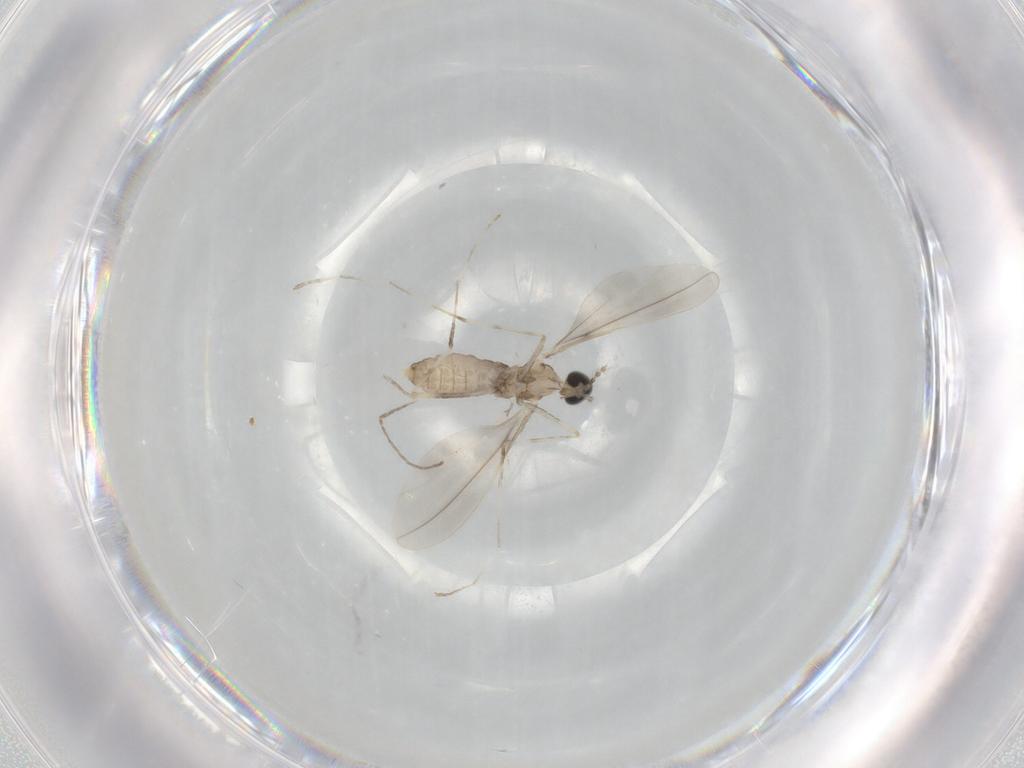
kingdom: Animalia
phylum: Arthropoda
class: Insecta
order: Diptera
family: Cecidomyiidae
